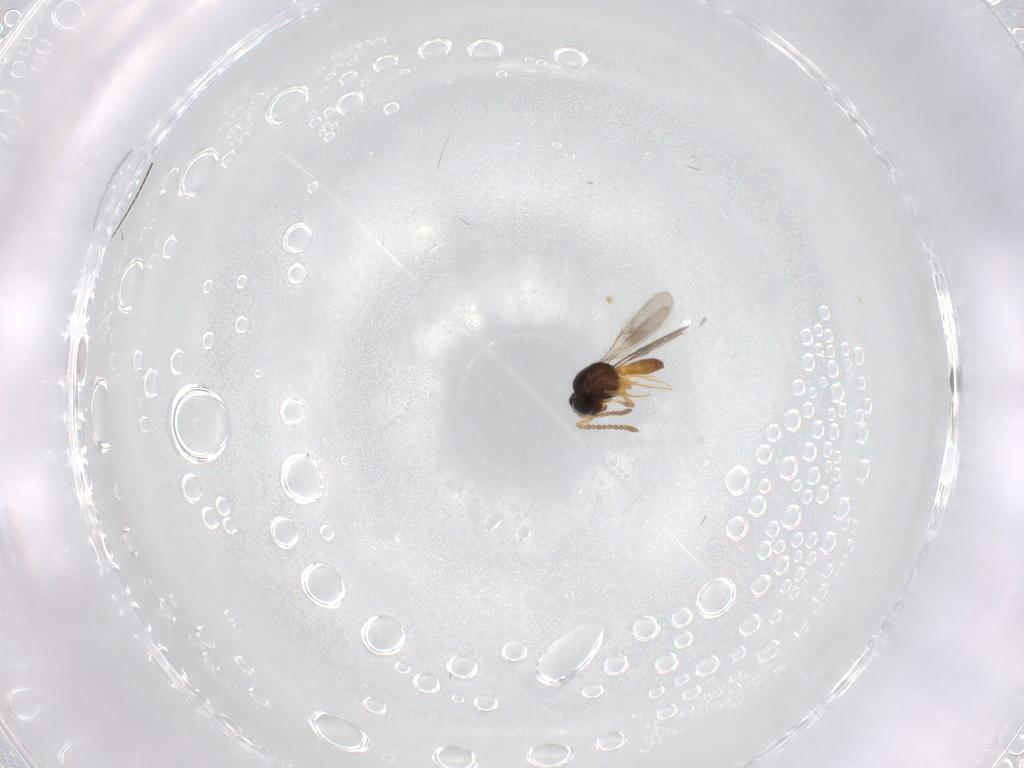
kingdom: Animalia
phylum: Arthropoda
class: Insecta
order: Hymenoptera
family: Scelionidae
